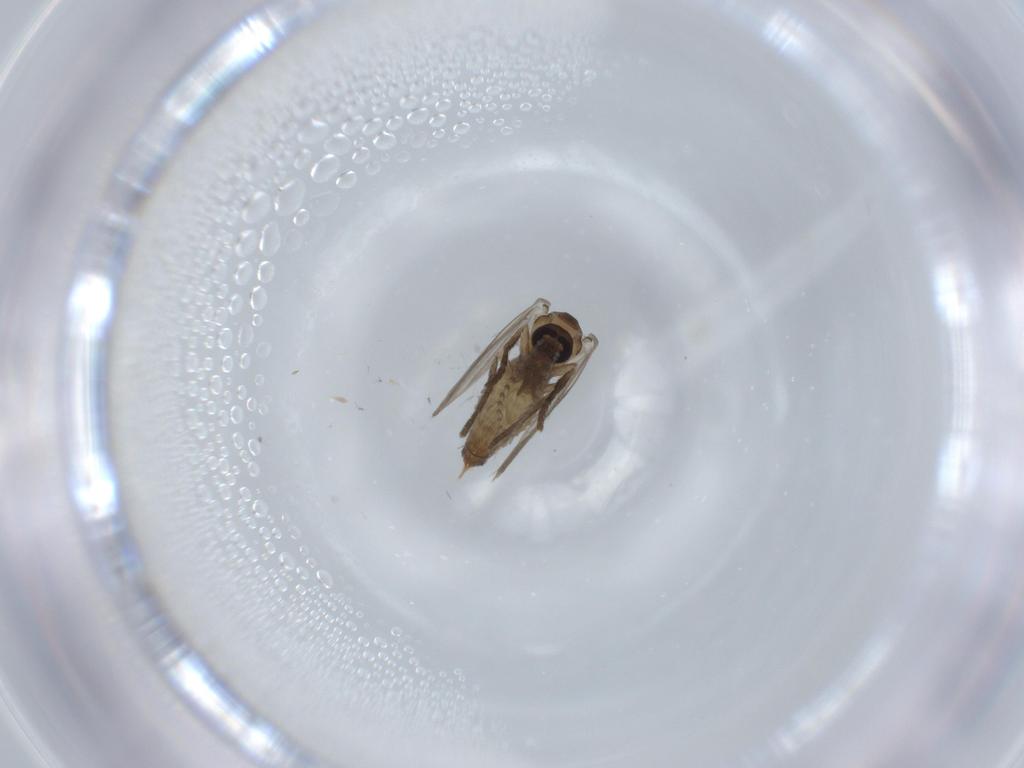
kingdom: Animalia
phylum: Arthropoda
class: Insecta
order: Diptera
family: Psychodidae
